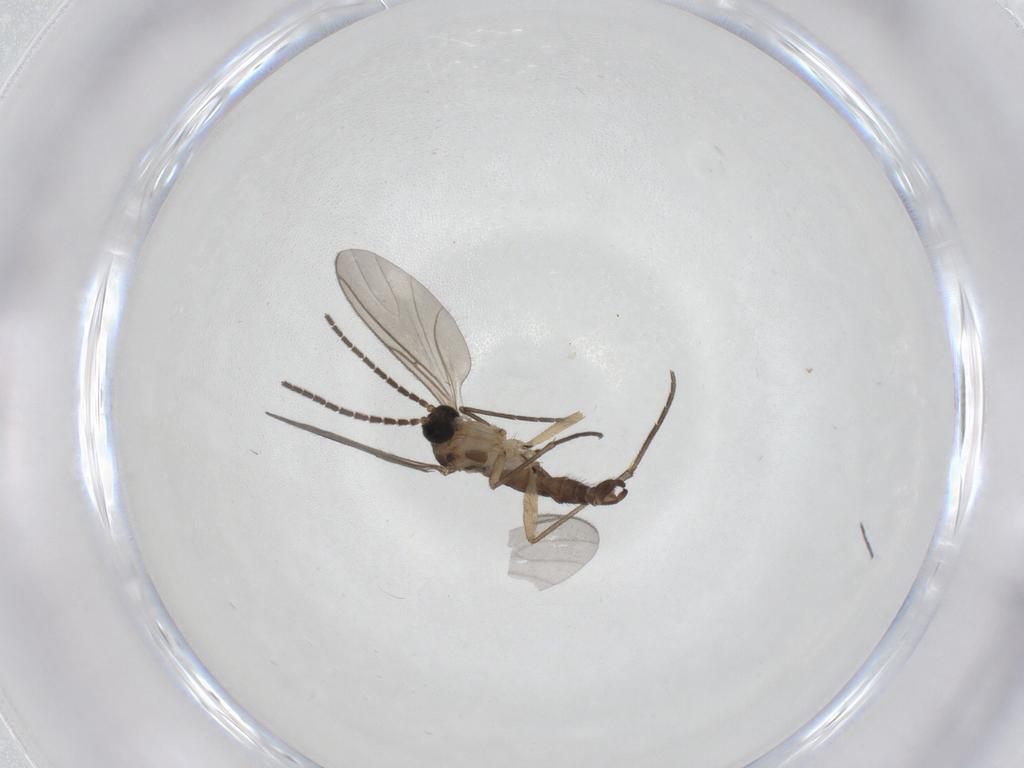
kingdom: Animalia
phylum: Arthropoda
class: Insecta
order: Diptera
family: Sciaridae
